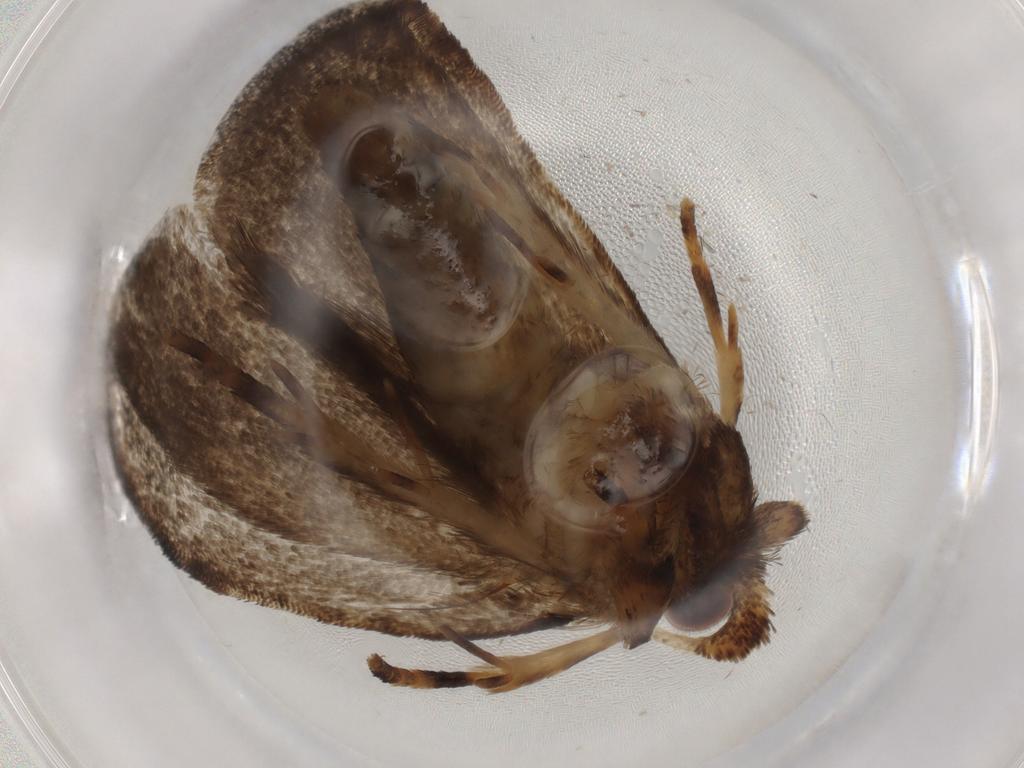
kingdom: Animalia
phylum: Arthropoda
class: Insecta
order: Lepidoptera
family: Tineidae
